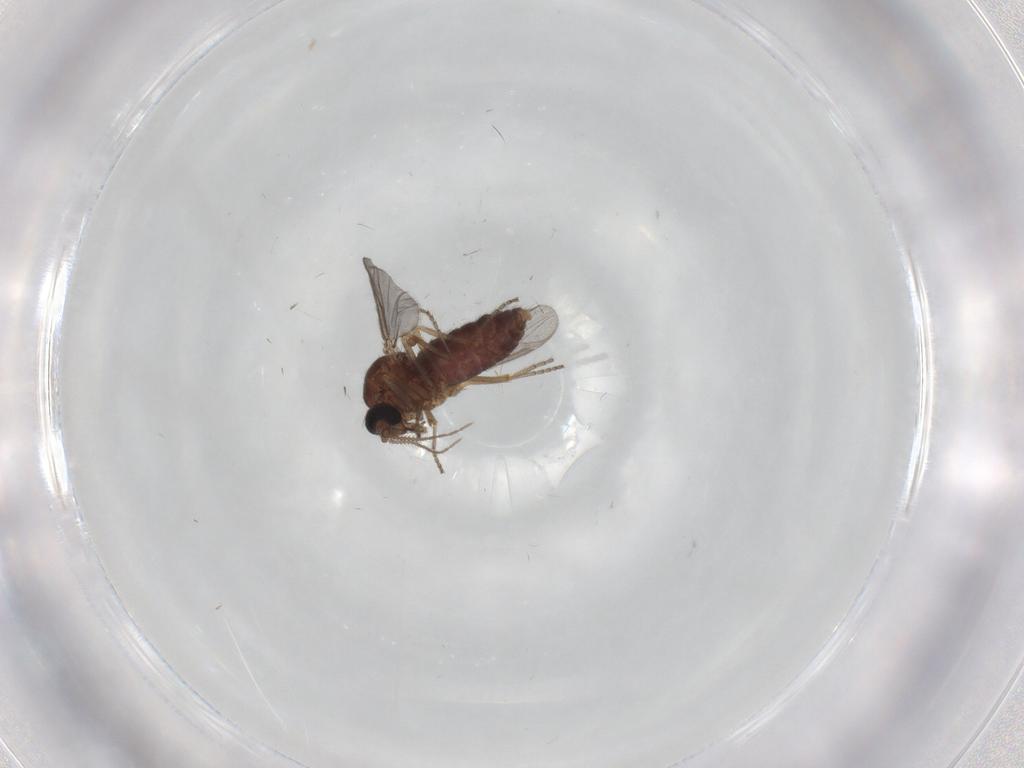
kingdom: Animalia
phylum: Arthropoda
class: Insecta
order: Diptera
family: Ceratopogonidae
